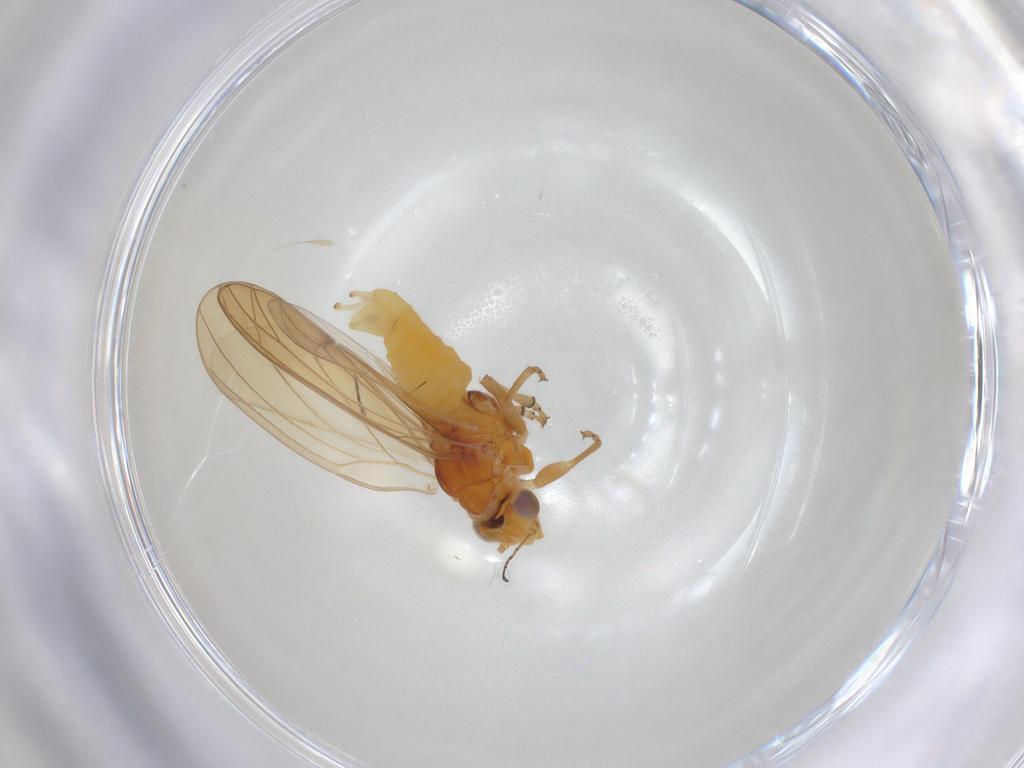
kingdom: Animalia
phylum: Arthropoda
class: Insecta
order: Diptera
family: Sciaridae
